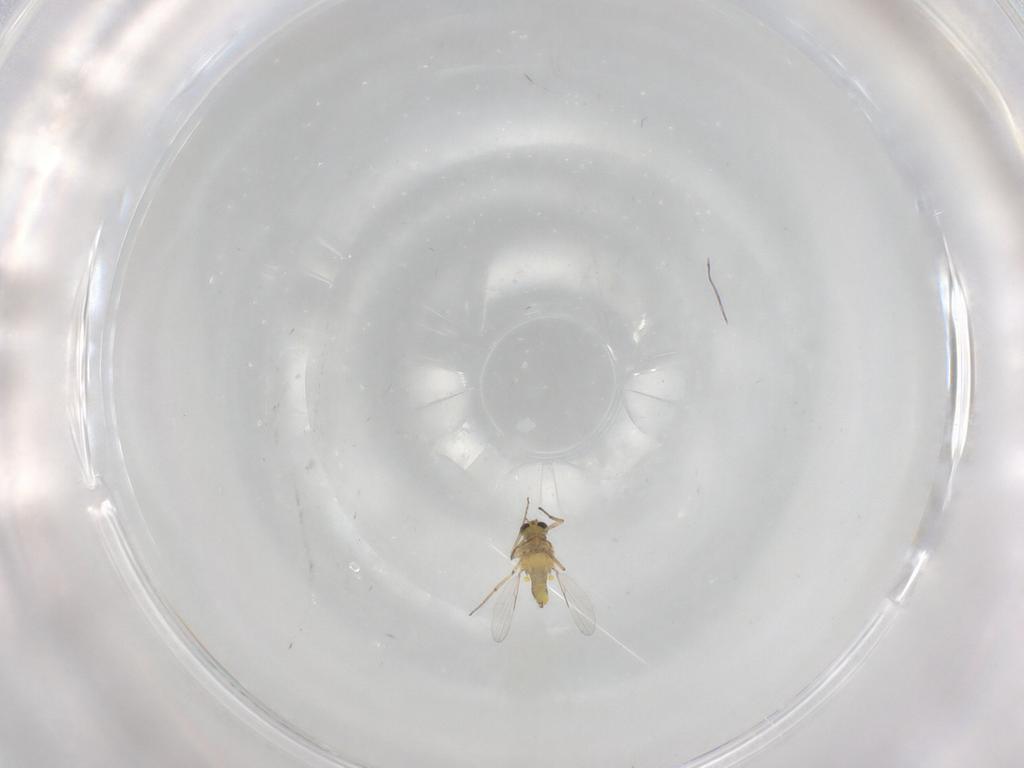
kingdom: Animalia
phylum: Arthropoda
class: Insecta
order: Diptera
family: Ceratopogonidae
